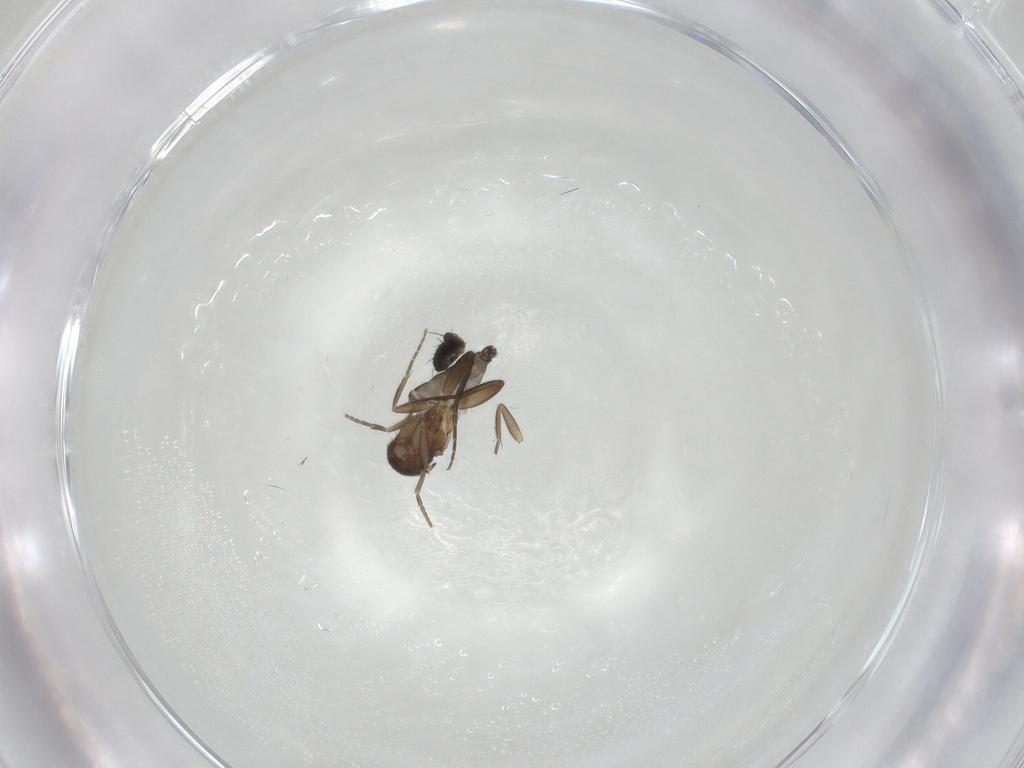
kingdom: Animalia
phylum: Arthropoda
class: Insecta
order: Diptera
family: Phoridae
